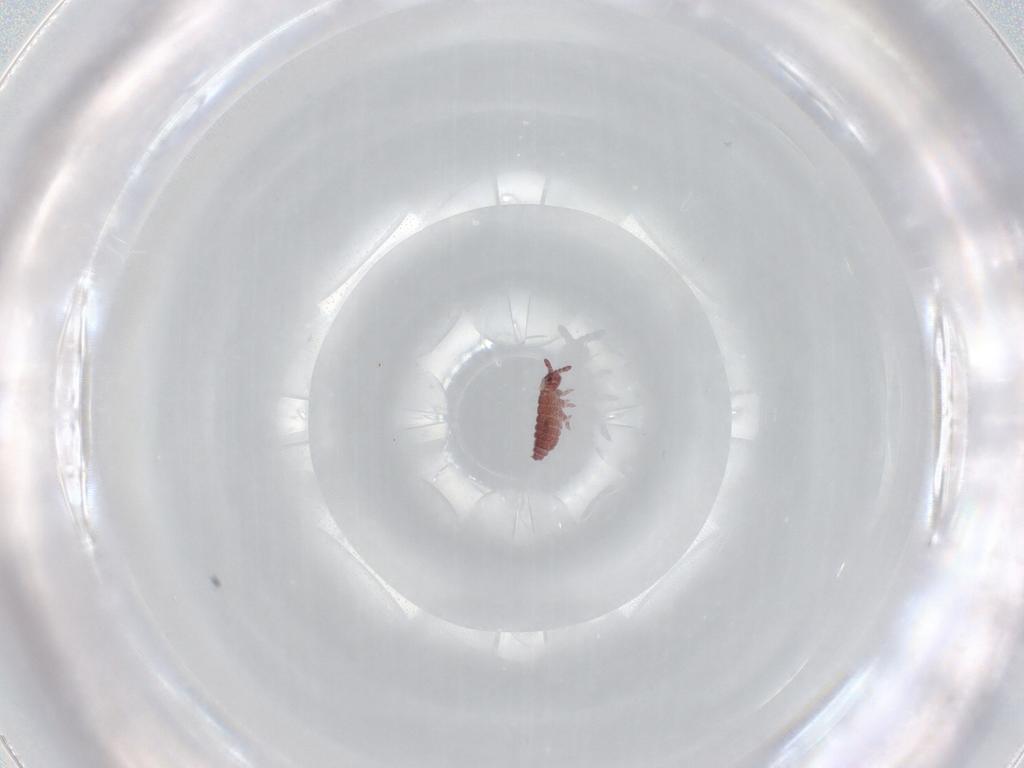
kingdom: Animalia
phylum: Arthropoda
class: Collembola
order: Poduromorpha
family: Hypogastruridae
